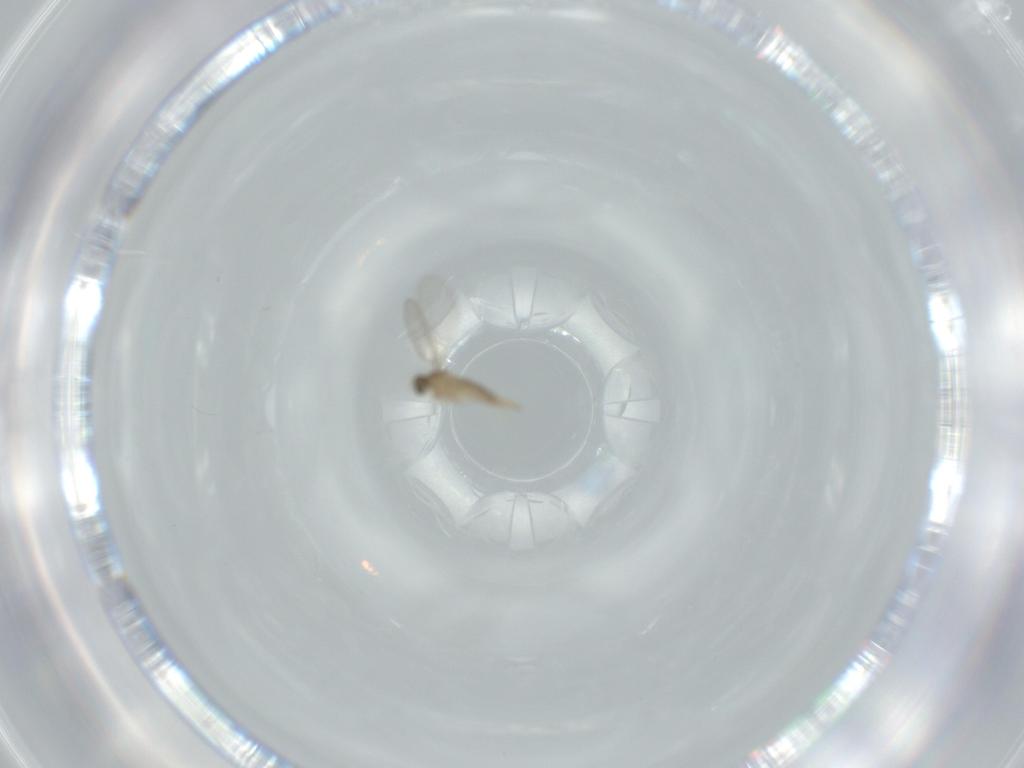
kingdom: Animalia
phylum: Arthropoda
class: Insecta
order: Diptera
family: Cecidomyiidae
